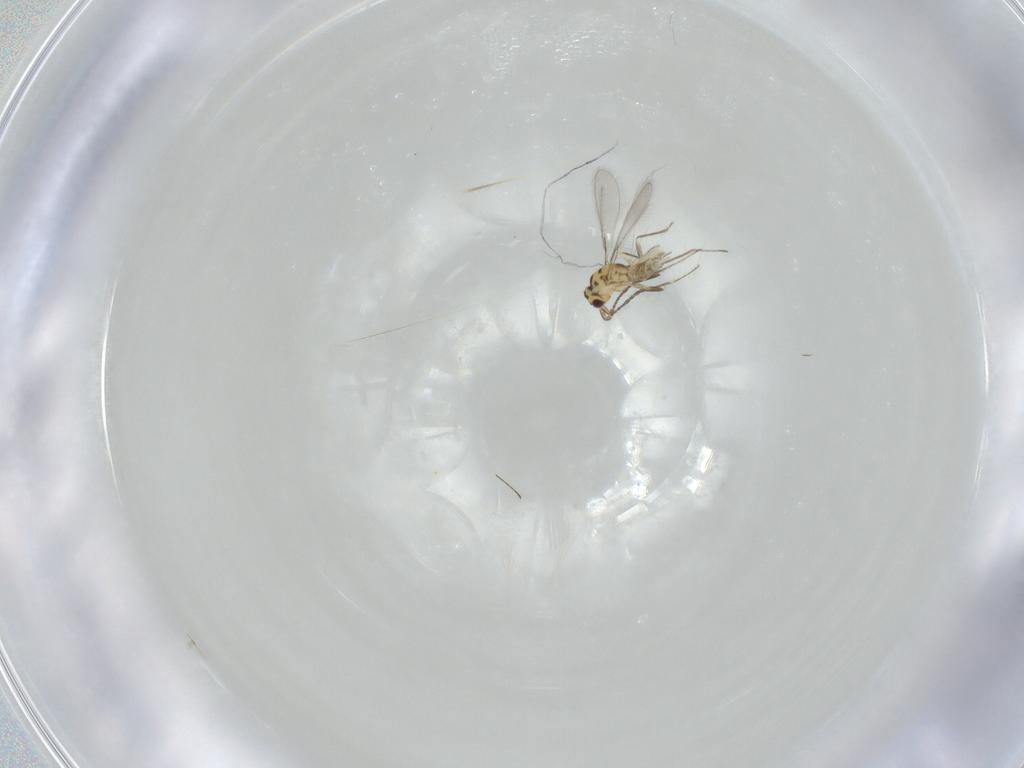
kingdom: Animalia
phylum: Arthropoda
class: Insecta
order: Hymenoptera
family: Mymaridae
